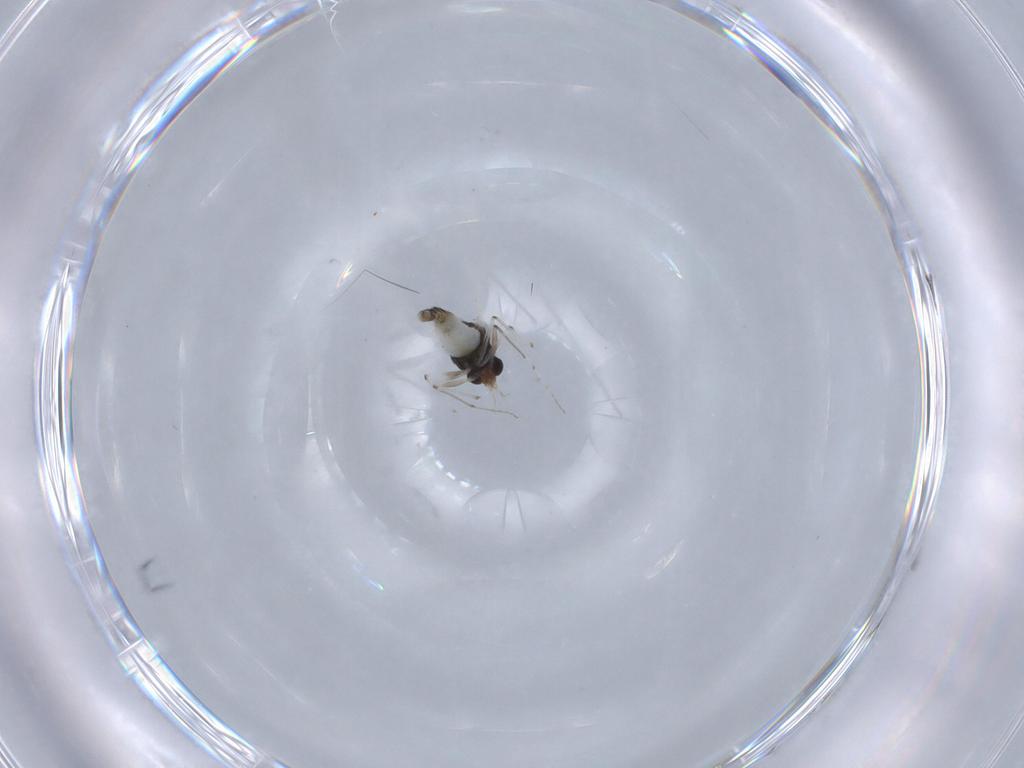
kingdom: Animalia
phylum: Arthropoda
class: Insecta
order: Diptera
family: Chironomidae
